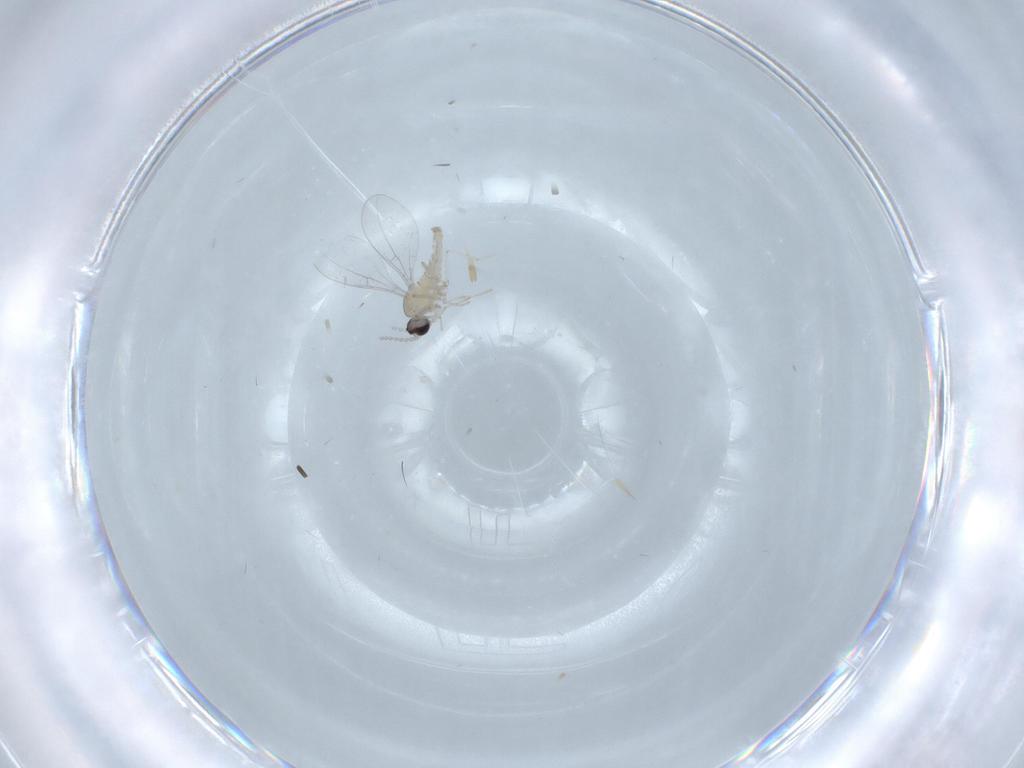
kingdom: Animalia
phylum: Arthropoda
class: Insecta
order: Diptera
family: Cecidomyiidae
